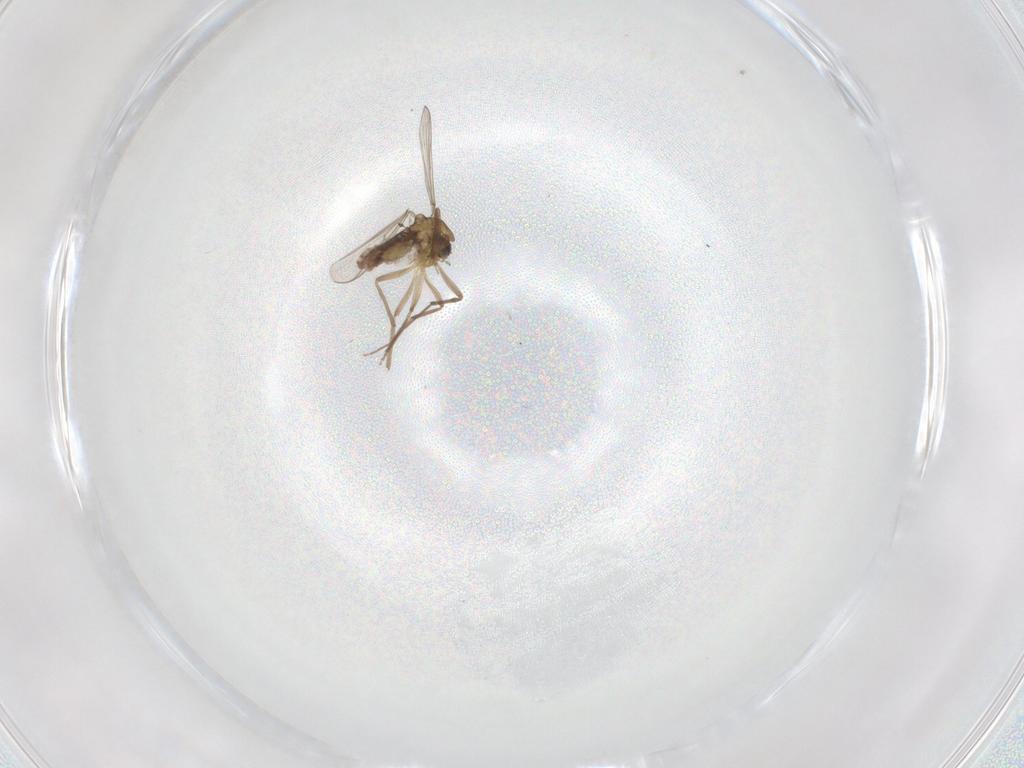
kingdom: Animalia
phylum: Arthropoda
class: Insecta
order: Diptera
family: Chironomidae
